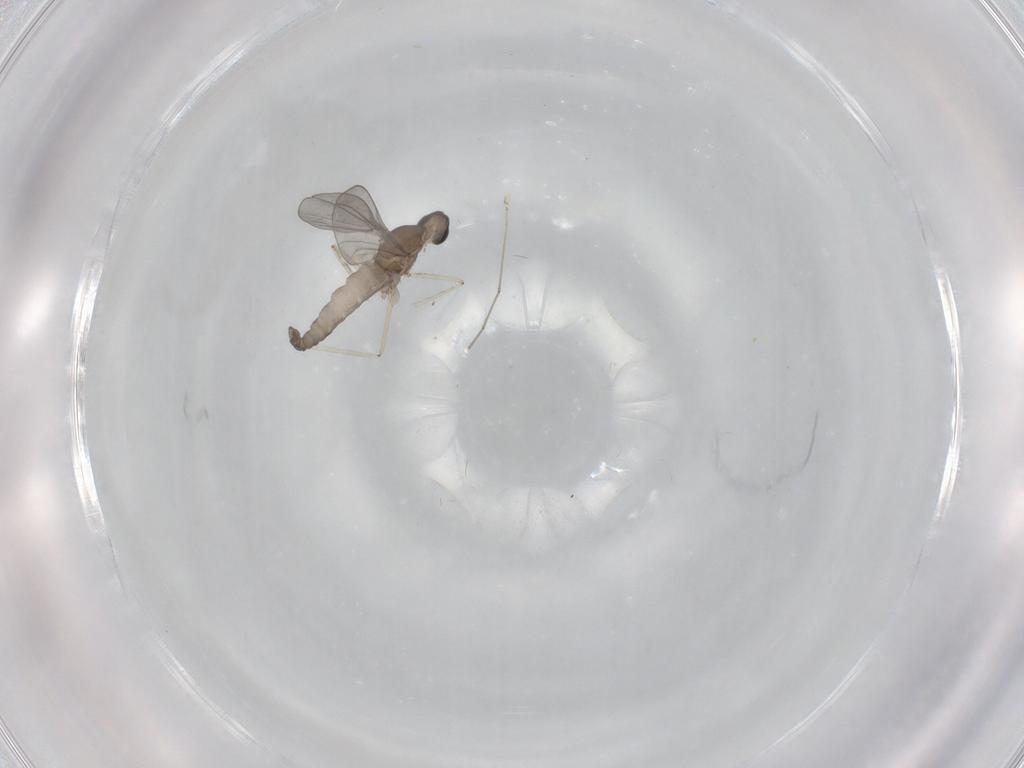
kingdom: Animalia
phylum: Arthropoda
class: Insecta
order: Diptera
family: Cecidomyiidae
